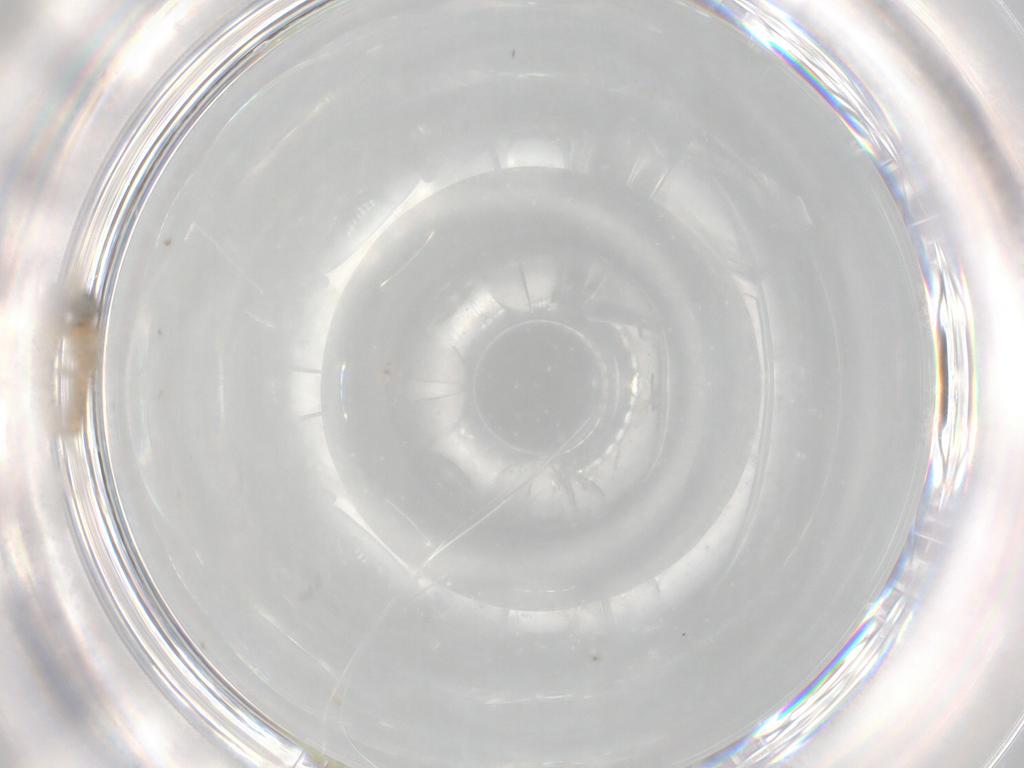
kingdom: Animalia
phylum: Arthropoda
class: Insecta
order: Diptera
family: Cecidomyiidae
